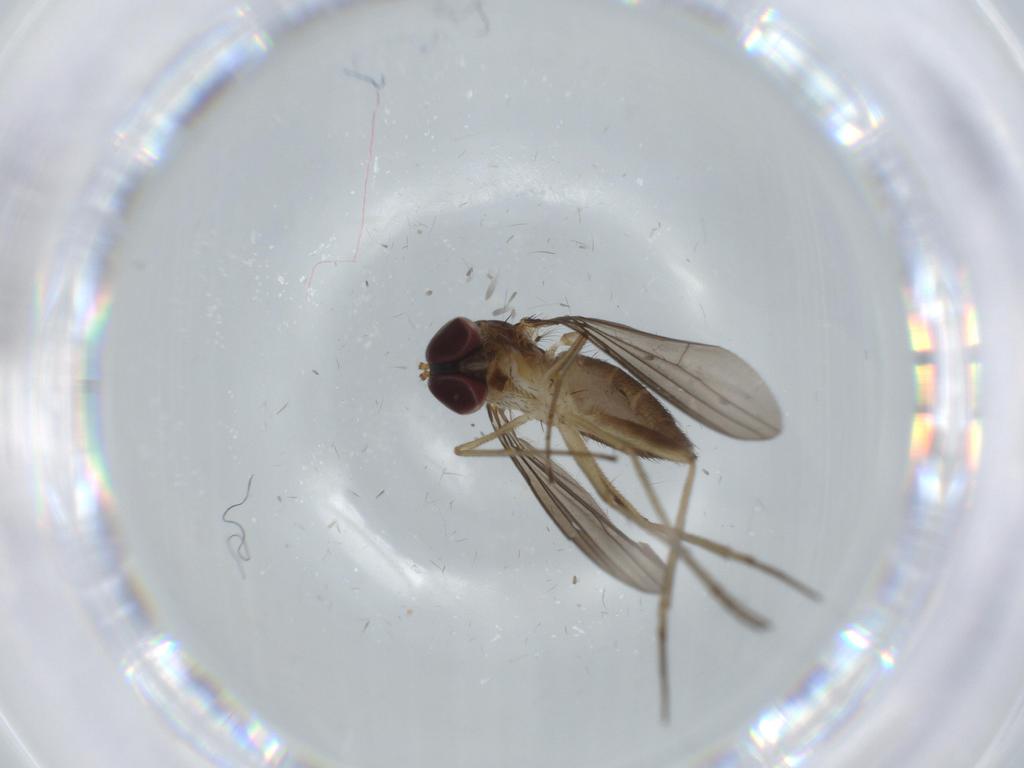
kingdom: Animalia
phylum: Arthropoda
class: Insecta
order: Diptera
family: Dolichopodidae
